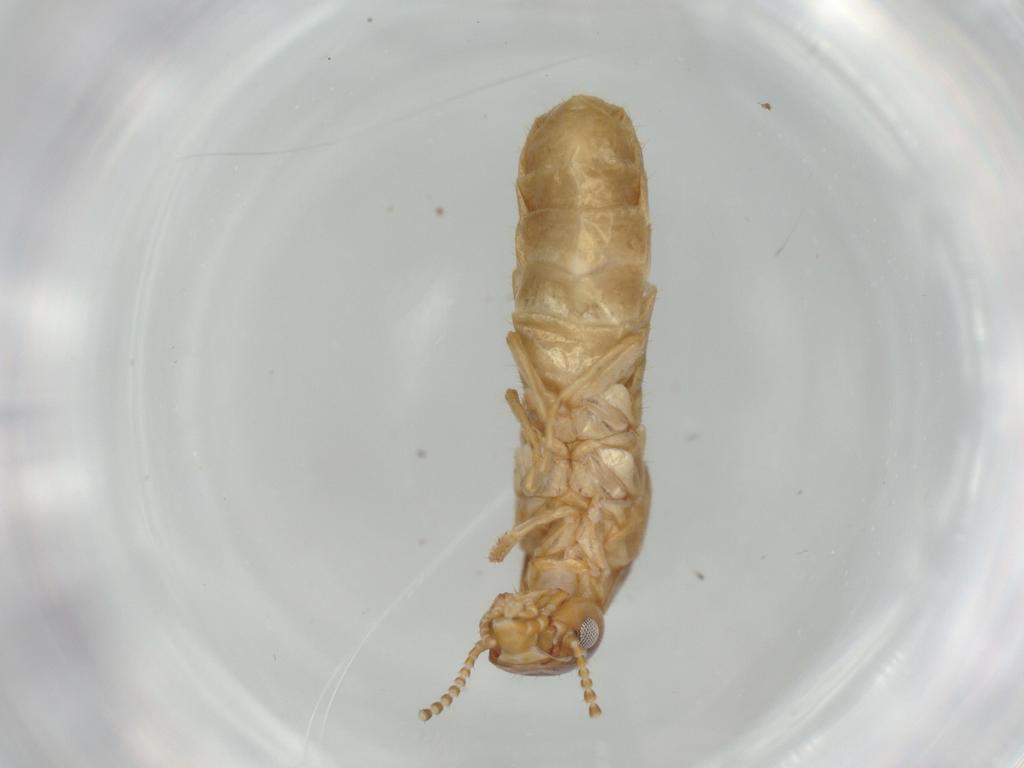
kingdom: Animalia
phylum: Arthropoda
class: Insecta
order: Blattodea
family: Kalotermitidae
